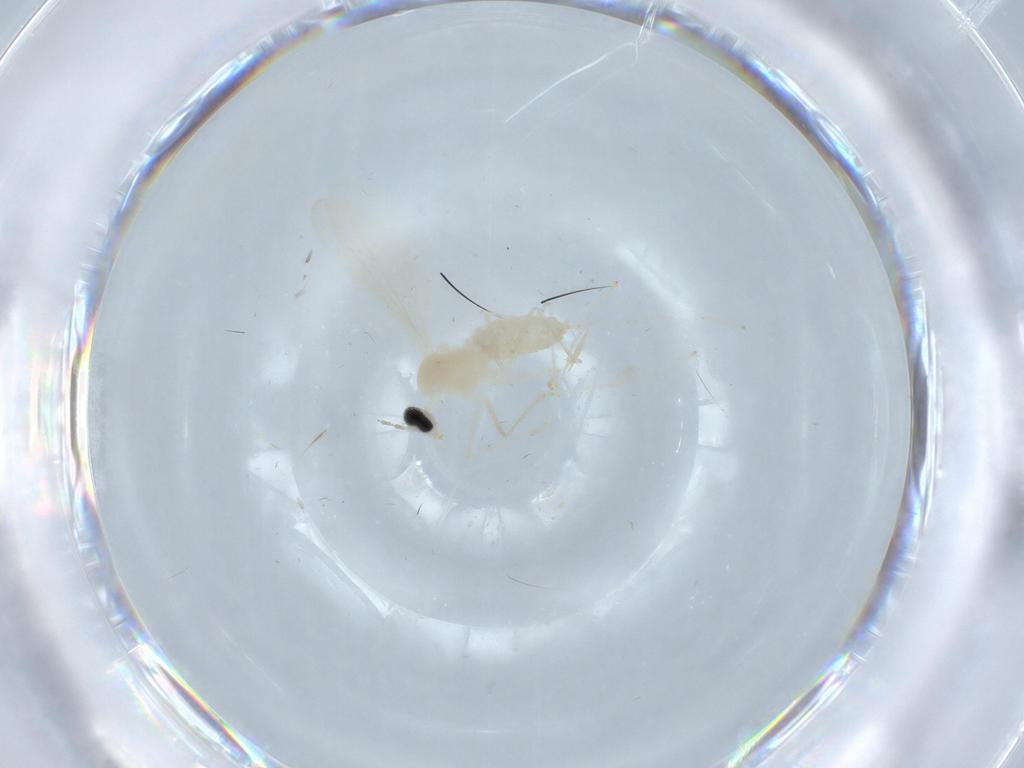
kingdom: Animalia
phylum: Arthropoda
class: Insecta
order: Diptera
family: Cecidomyiidae
